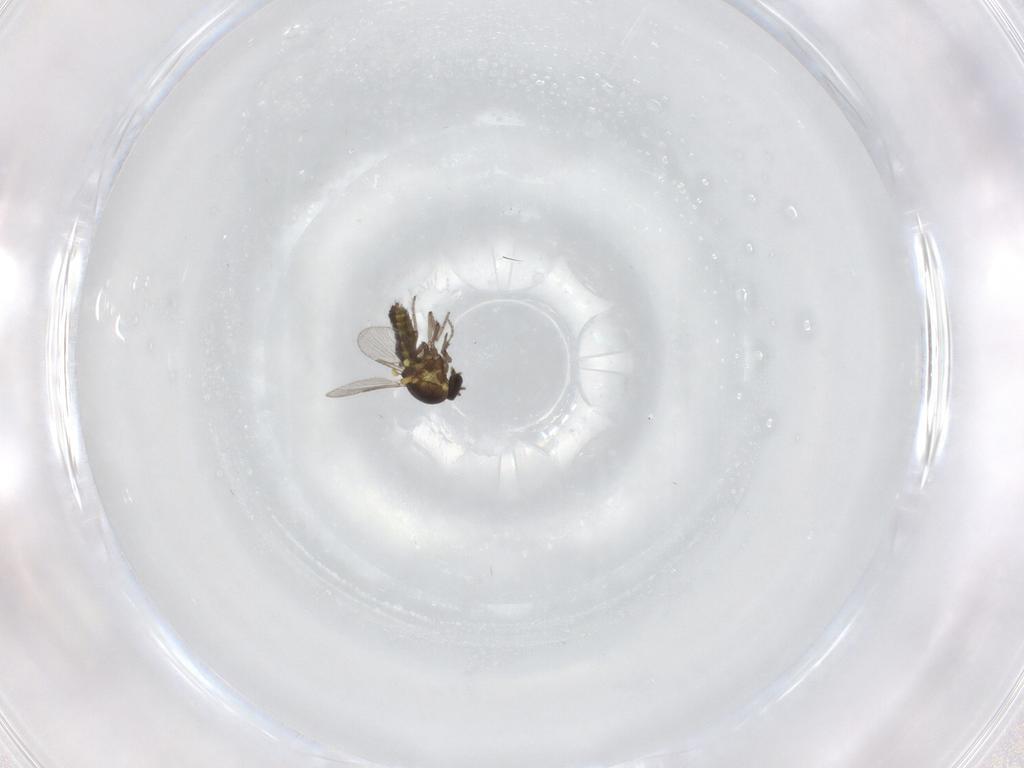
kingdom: Animalia
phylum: Arthropoda
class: Insecta
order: Diptera
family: Ceratopogonidae
